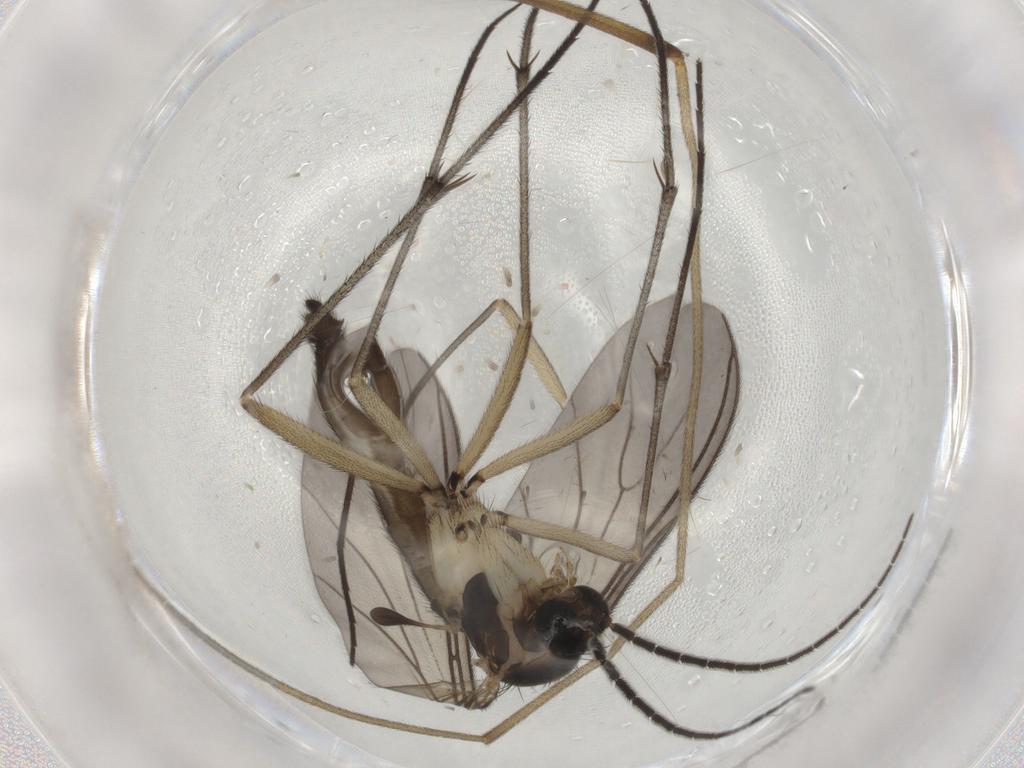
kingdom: Animalia
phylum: Arthropoda
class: Insecta
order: Diptera
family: Sciaridae
